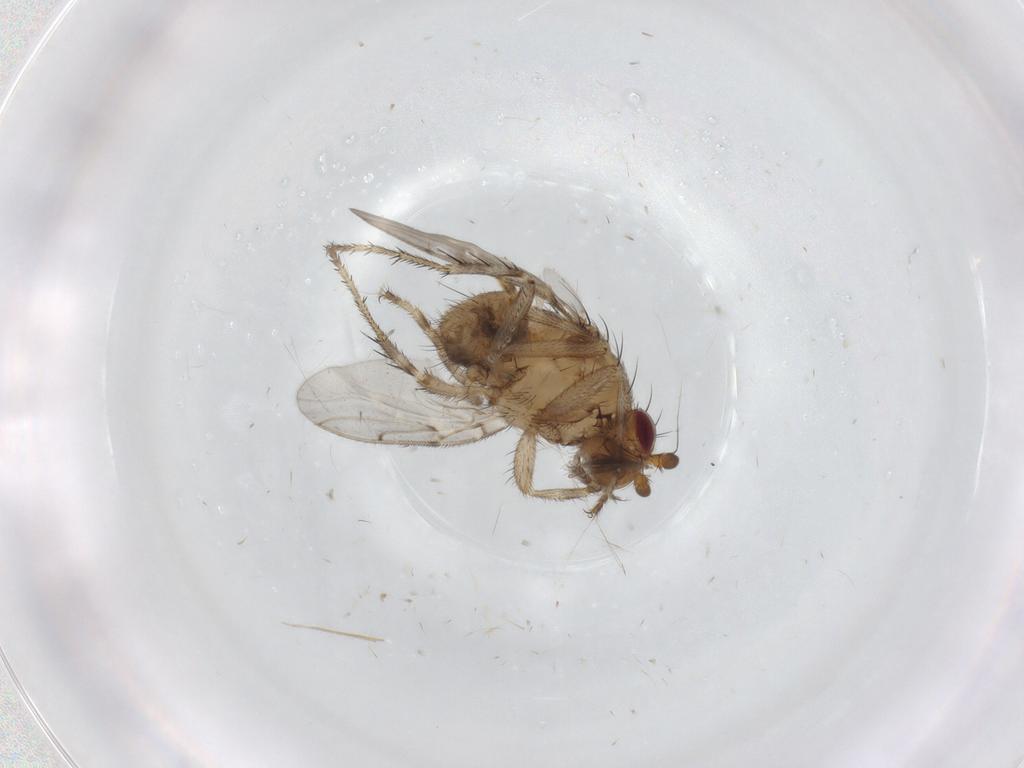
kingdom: Animalia
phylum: Arthropoda
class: Insecta
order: Diptera
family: Sphaeroceridae
